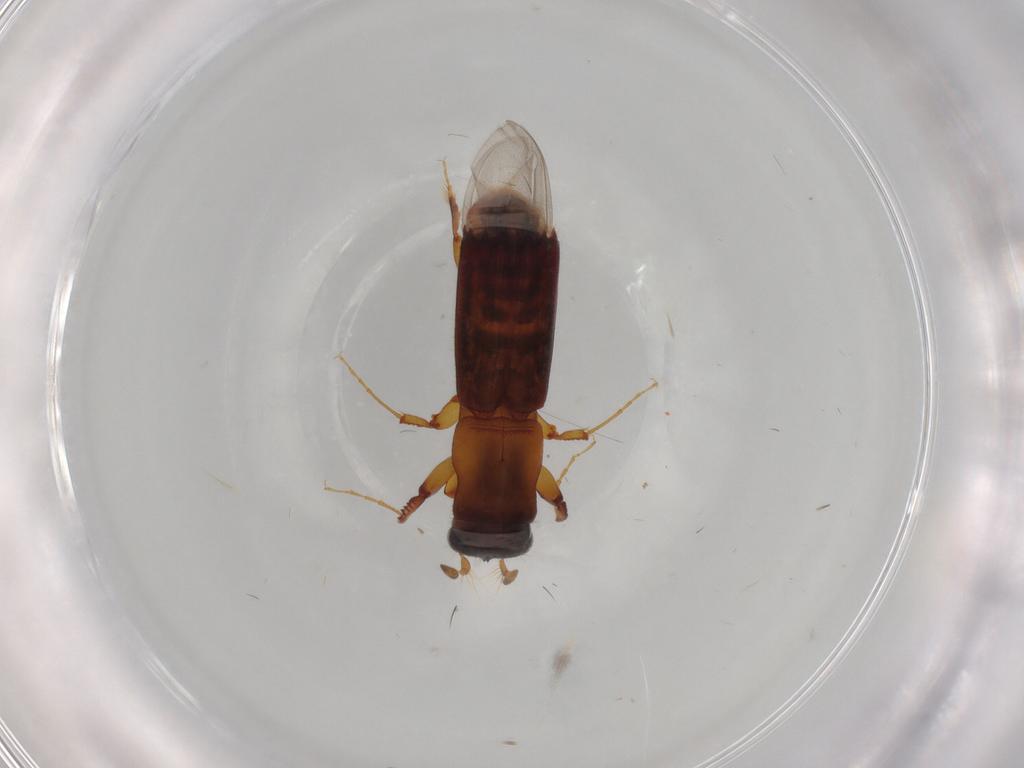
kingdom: Animalia
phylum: Arthropoda
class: Insecta
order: Coleoptera
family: Curculionidae
